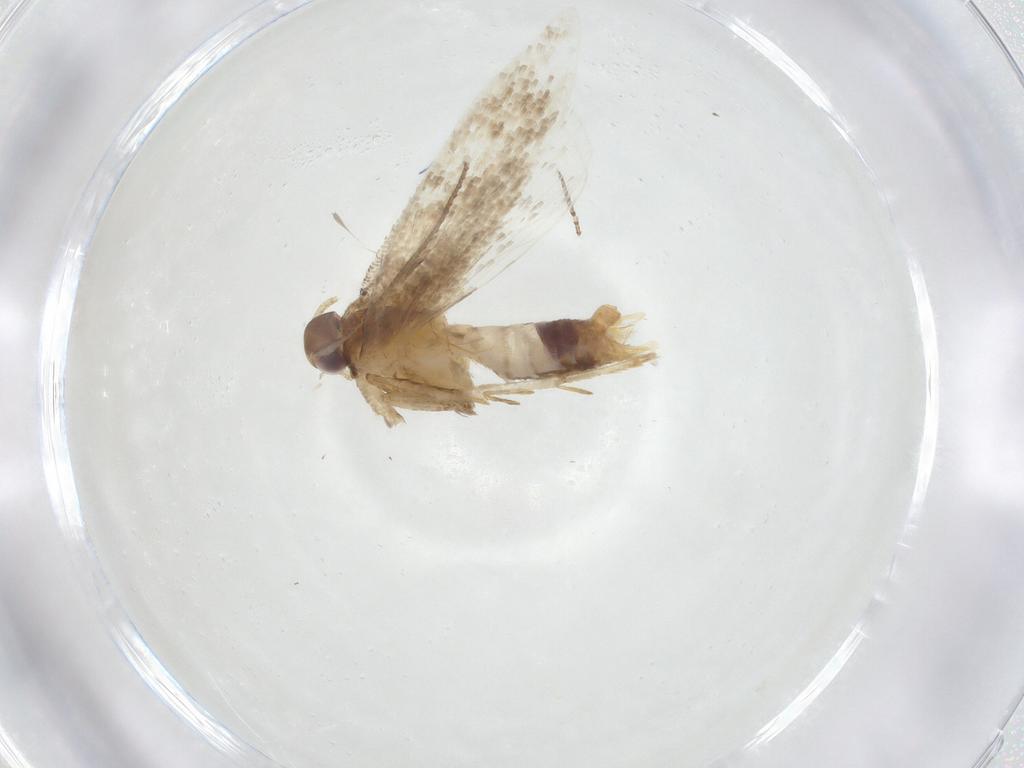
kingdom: Animalia
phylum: Arthropoda
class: Insecta
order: Lepidoptera
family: Gelechiidae
